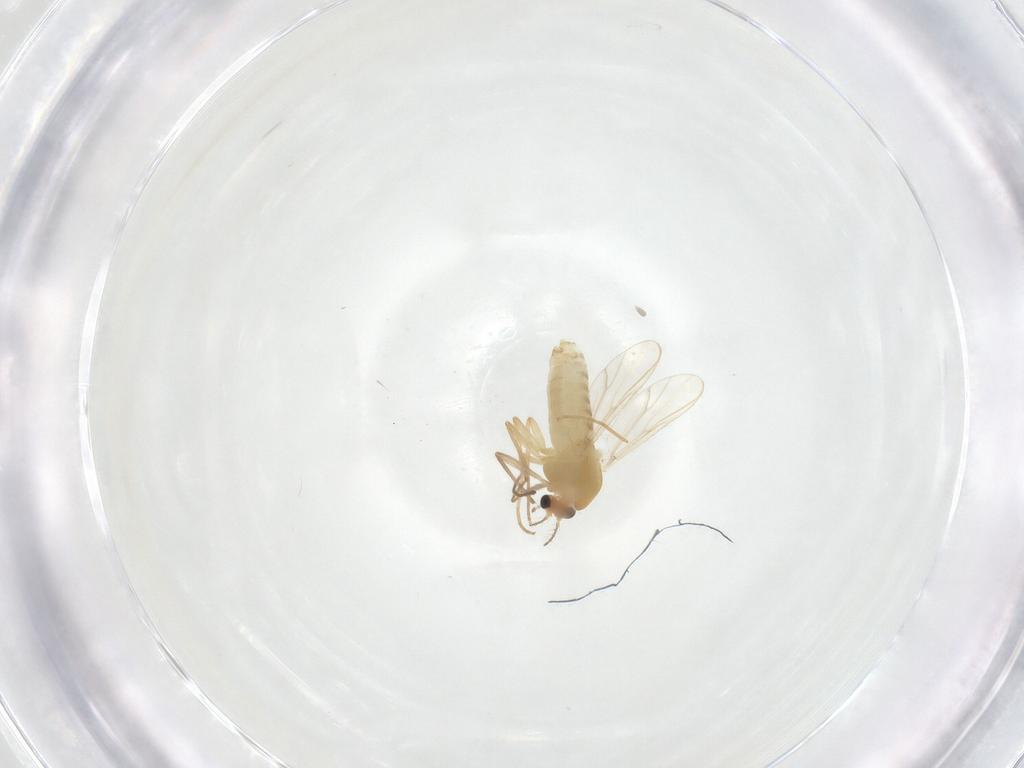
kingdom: Animalia
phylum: Arthropoda
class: Insecta
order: Diptera
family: Chironomidae
